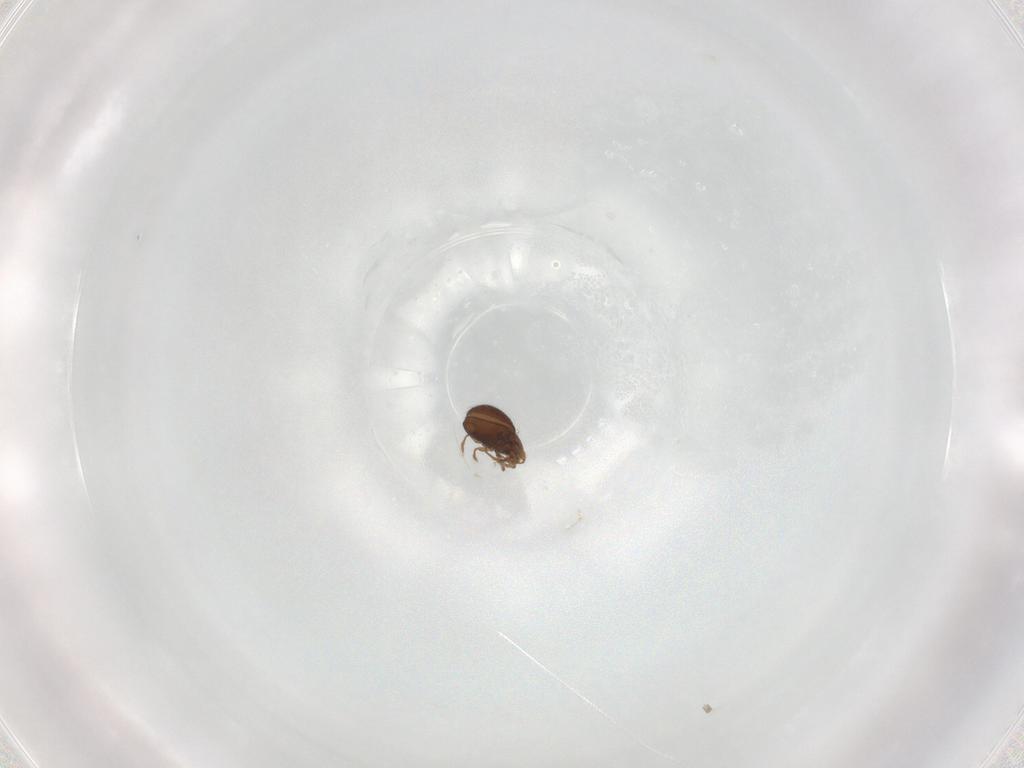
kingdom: Animalia
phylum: Arthropoda
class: Arachnida
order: Sarcoptiformes
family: Oribatulidae
